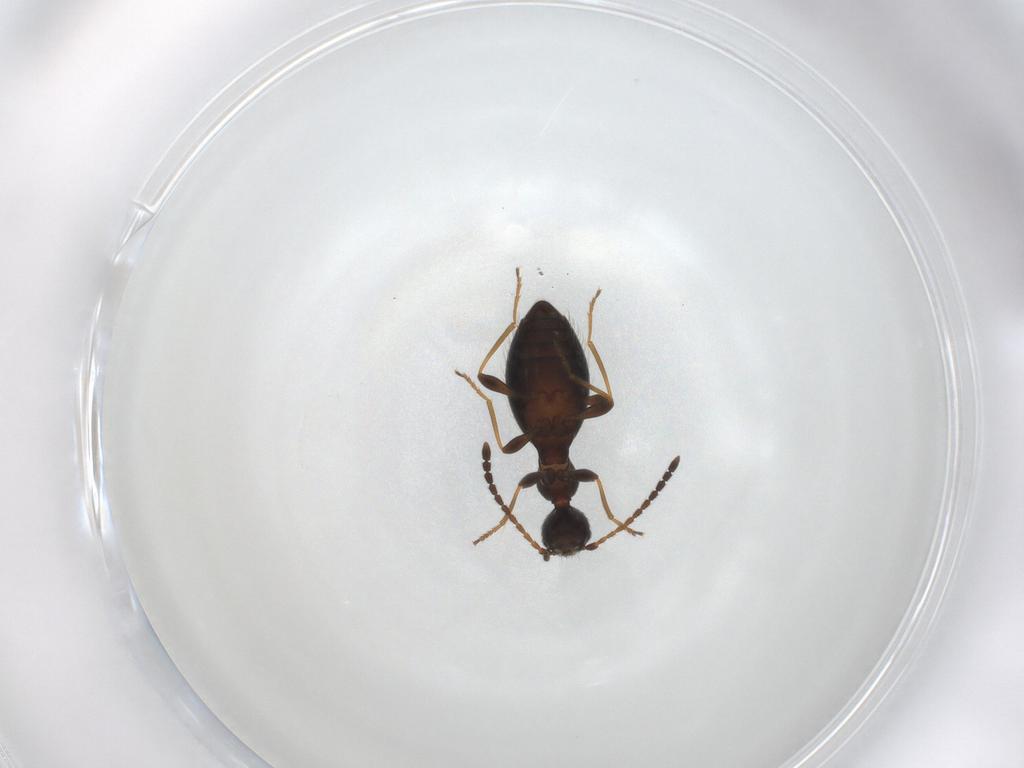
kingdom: Animalia
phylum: Arthropoda
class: Insecta
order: Coleoptera
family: Anthicidae
